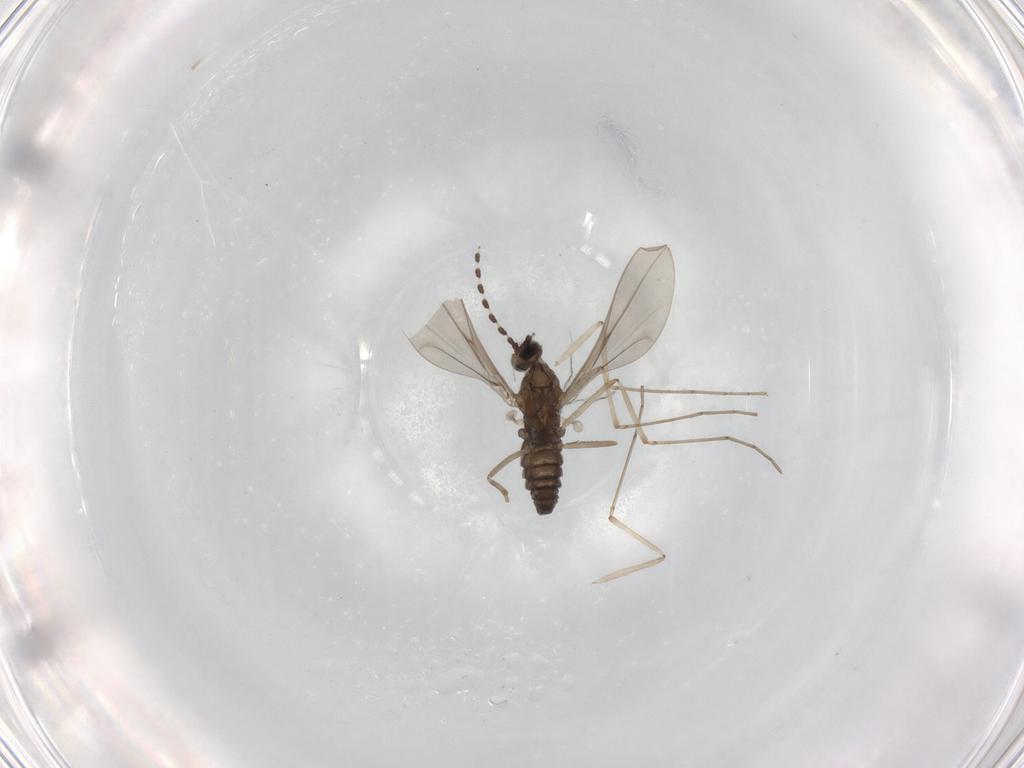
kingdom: Animalia
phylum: Arthropoda
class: Insecta
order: Diptera
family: Cecidomyiidae
